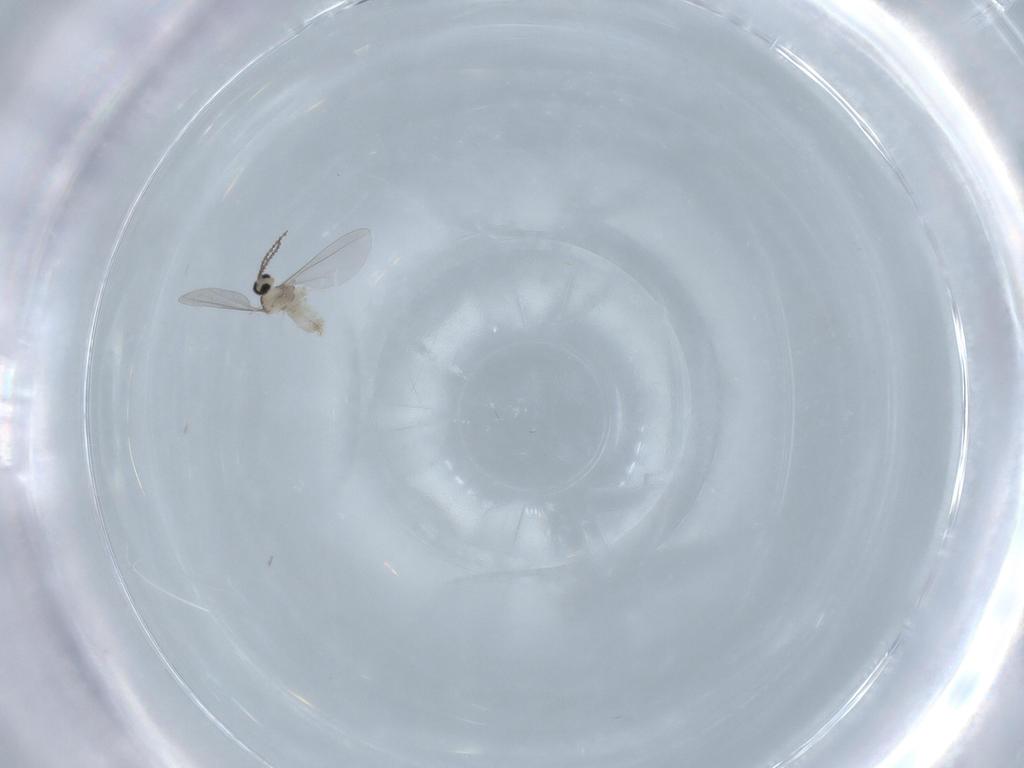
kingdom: Animalia
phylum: Arthropoda
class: Insecta
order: Diptera
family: Cecidomyiidae
